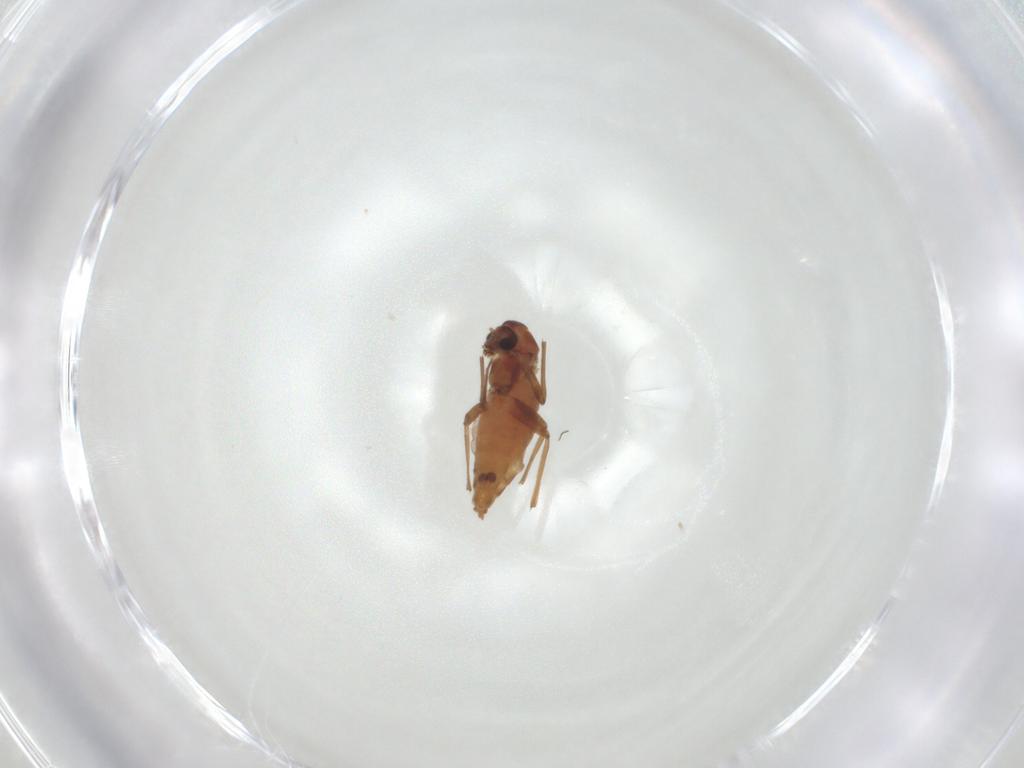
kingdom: Animalia
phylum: Arthropoda
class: Insecta
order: Diptera
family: Chironomidae
